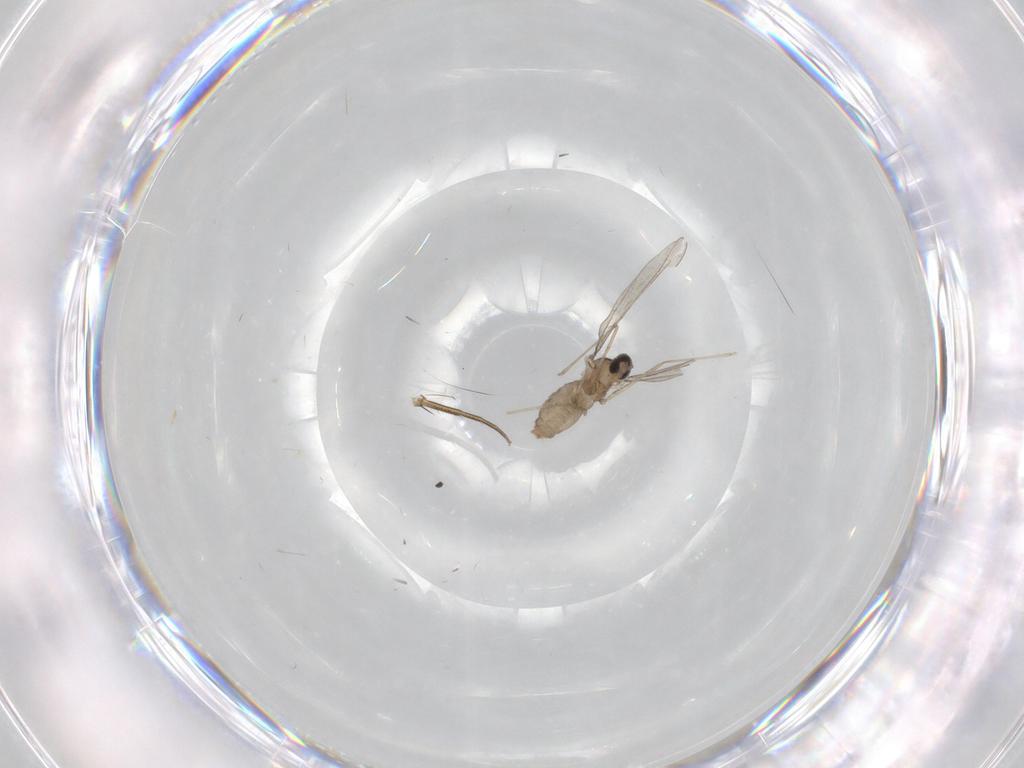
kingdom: Animalia
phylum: Arthropoda
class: Insecta
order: Diptera
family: Cecidomyiidae
